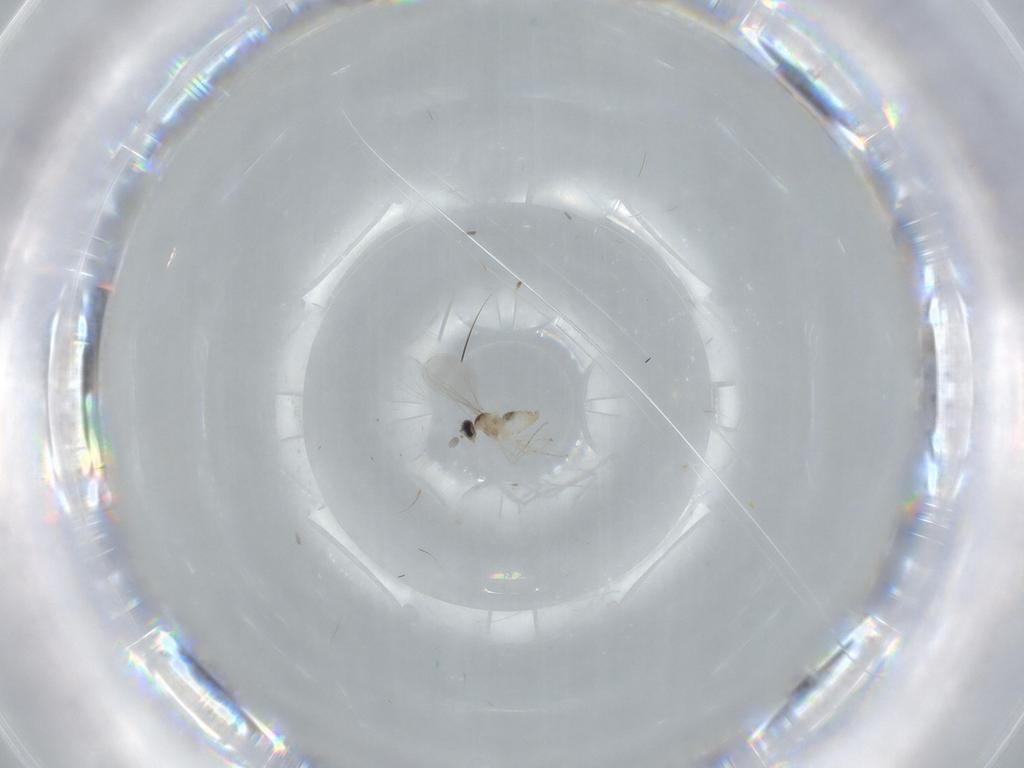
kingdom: Animalia
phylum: Arthropoda
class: Insecta
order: Diptera
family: Cecidomyiidae
